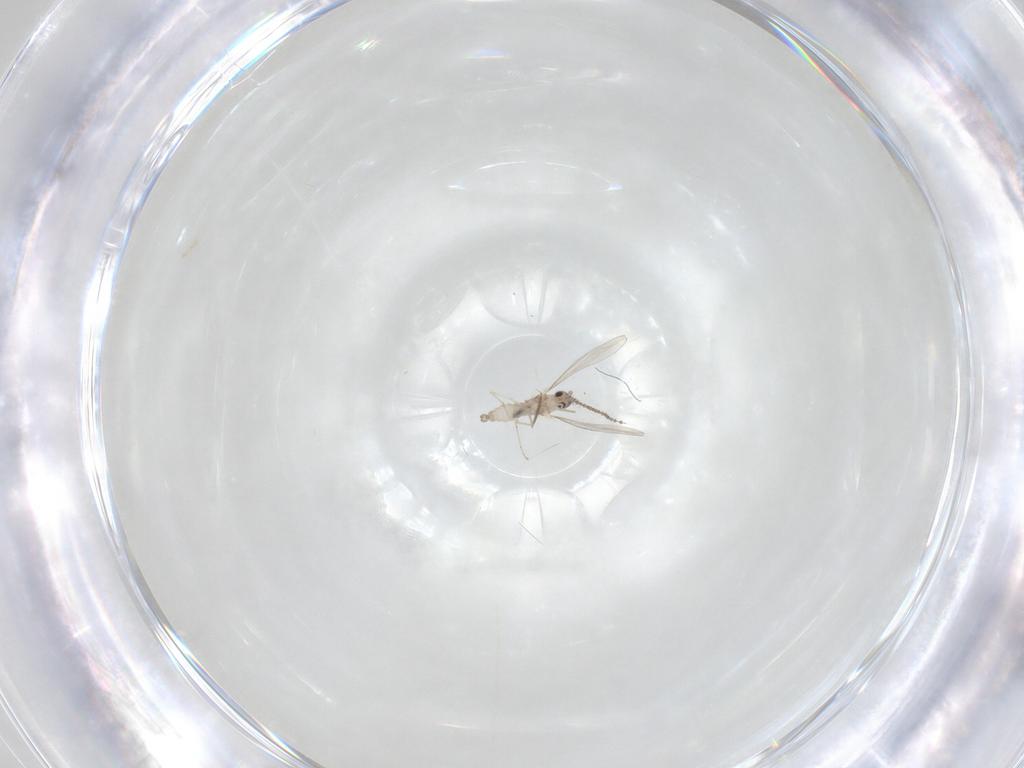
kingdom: Animalia
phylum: Arthropoda
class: Insecta
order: Diptera
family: Cecidomyiidae
